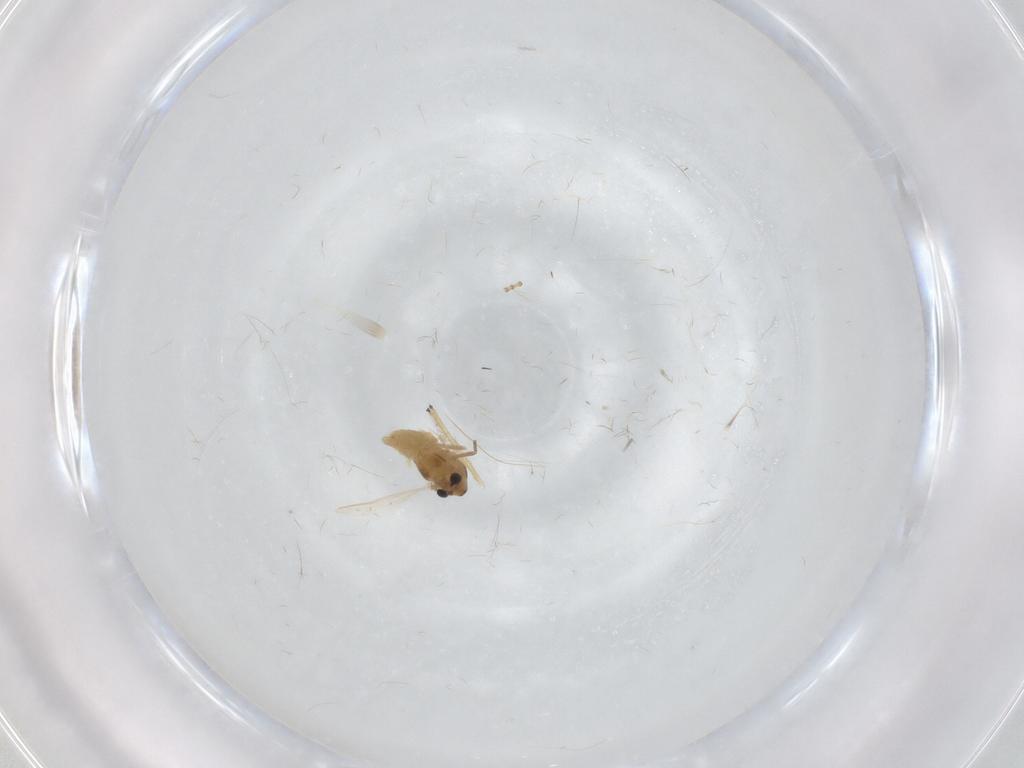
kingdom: Animalia
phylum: Arthropoda
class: Insecta
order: Diptera
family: Chironomidae
